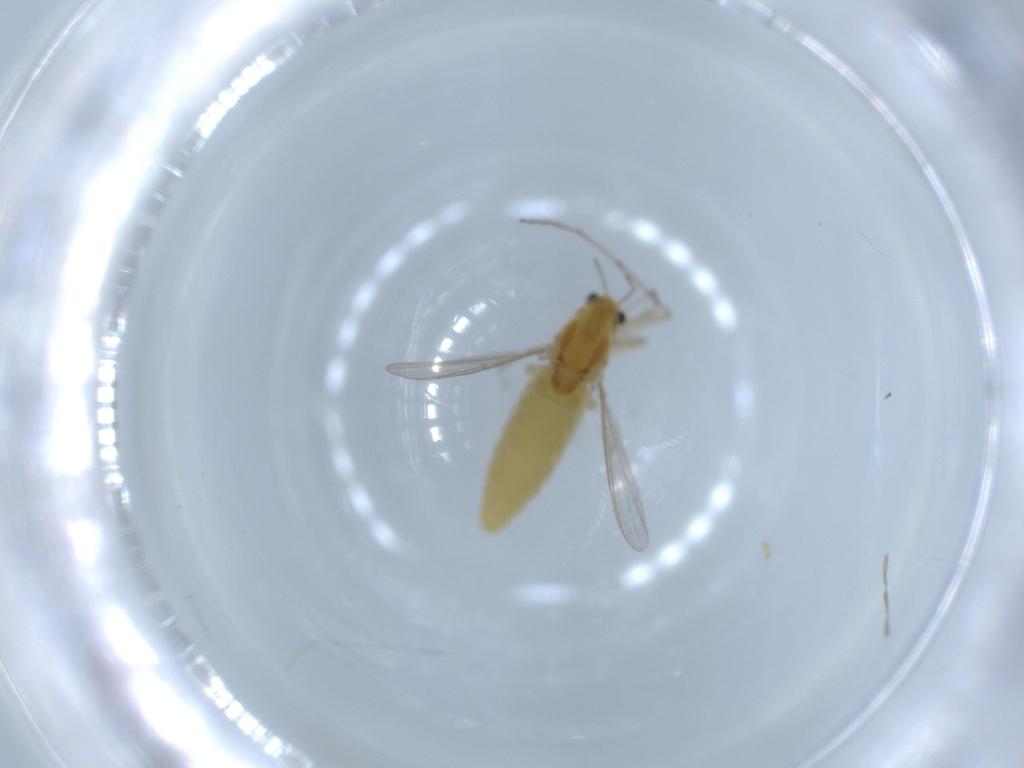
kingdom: Animalia
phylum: Arthropoda
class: Insecta
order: Diptera
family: Chironomidae
